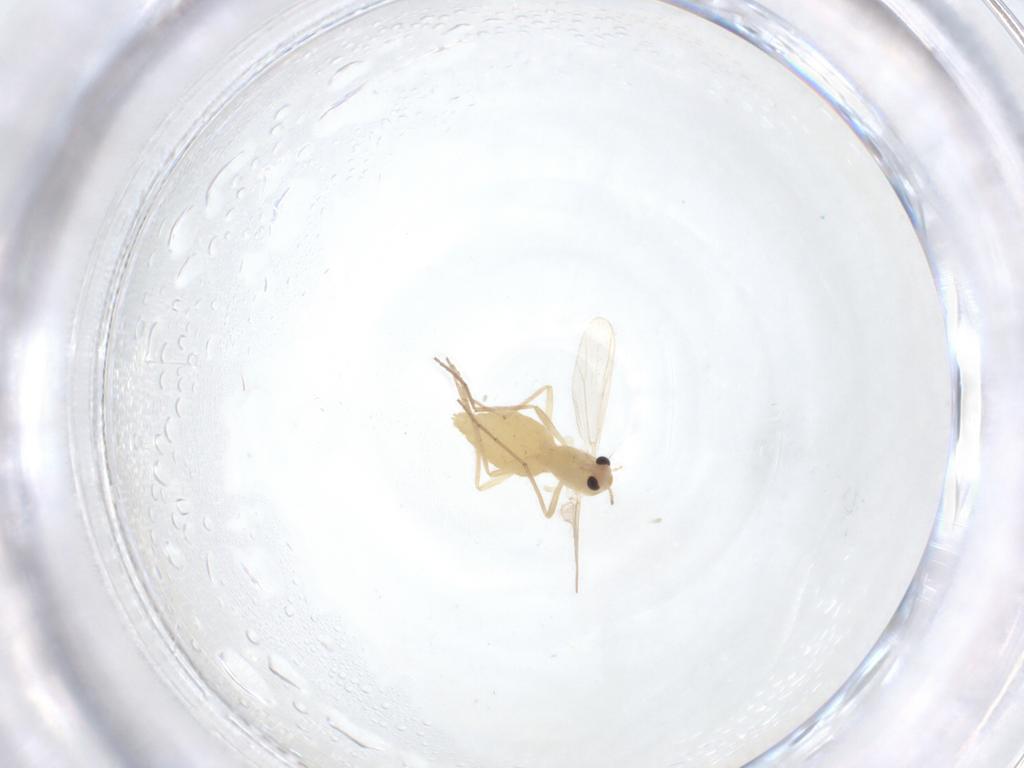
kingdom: Animalia
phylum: Arthropoda
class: Insecta
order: Diptera
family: Chironomidae
